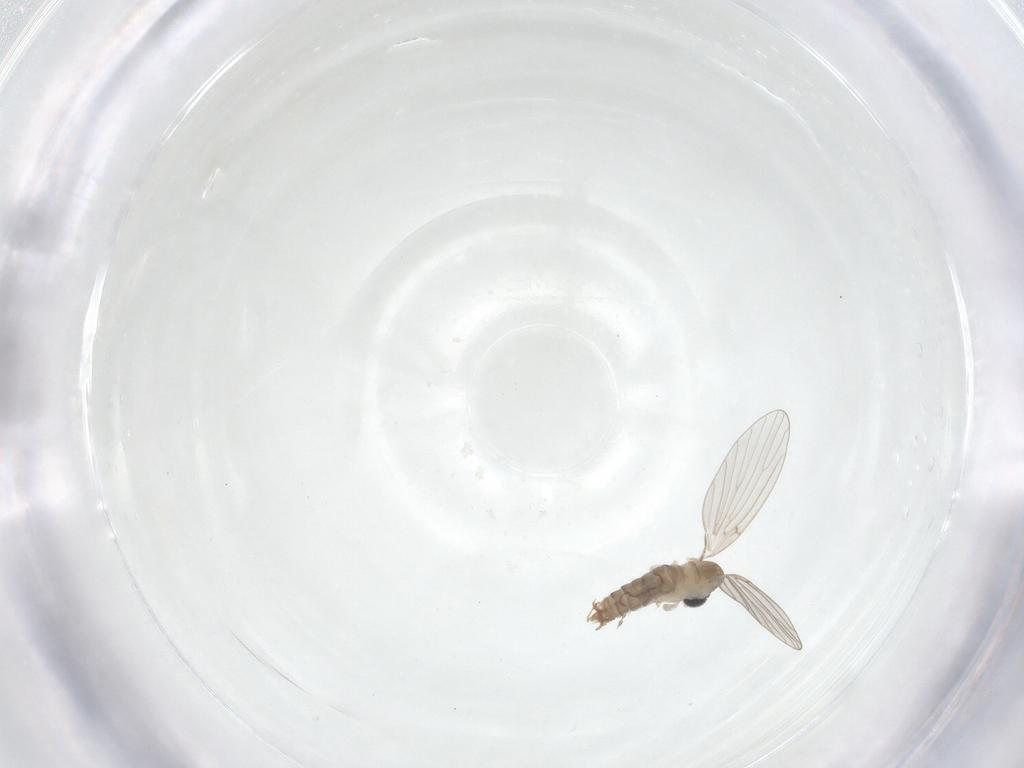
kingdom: Animalia
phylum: Arthropoda
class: Insecta
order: Diptera
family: Psychodidae
